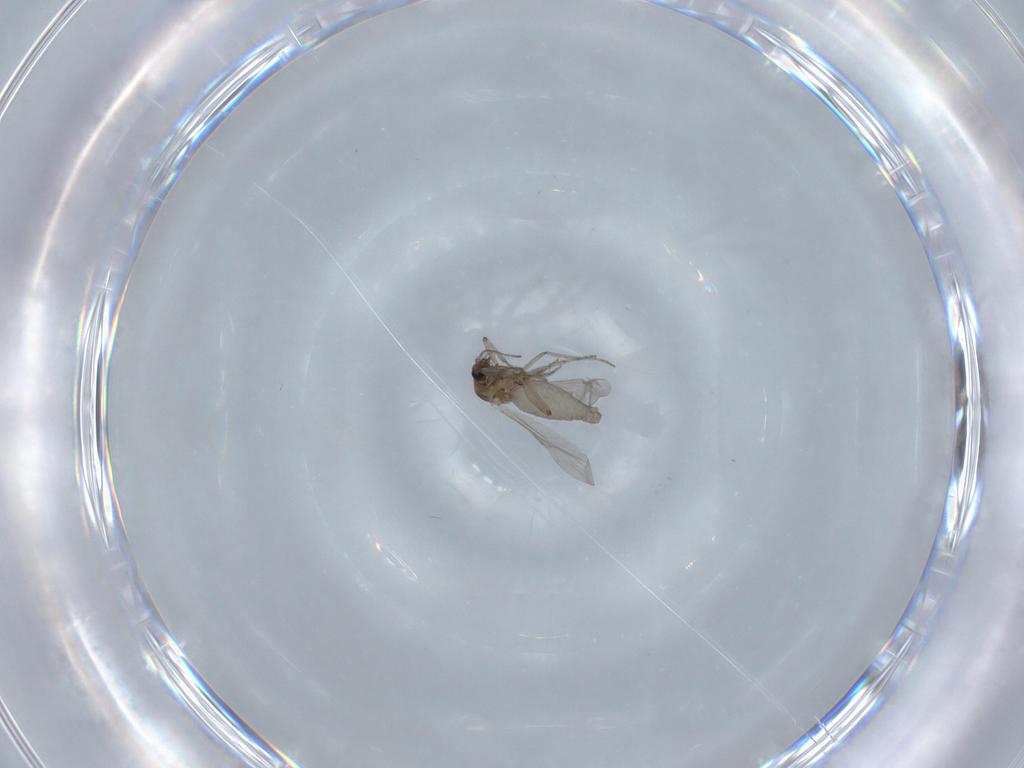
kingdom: Animalia
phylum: Arthropoda
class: Insecta
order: Diptera
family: Ceratopogonidae
